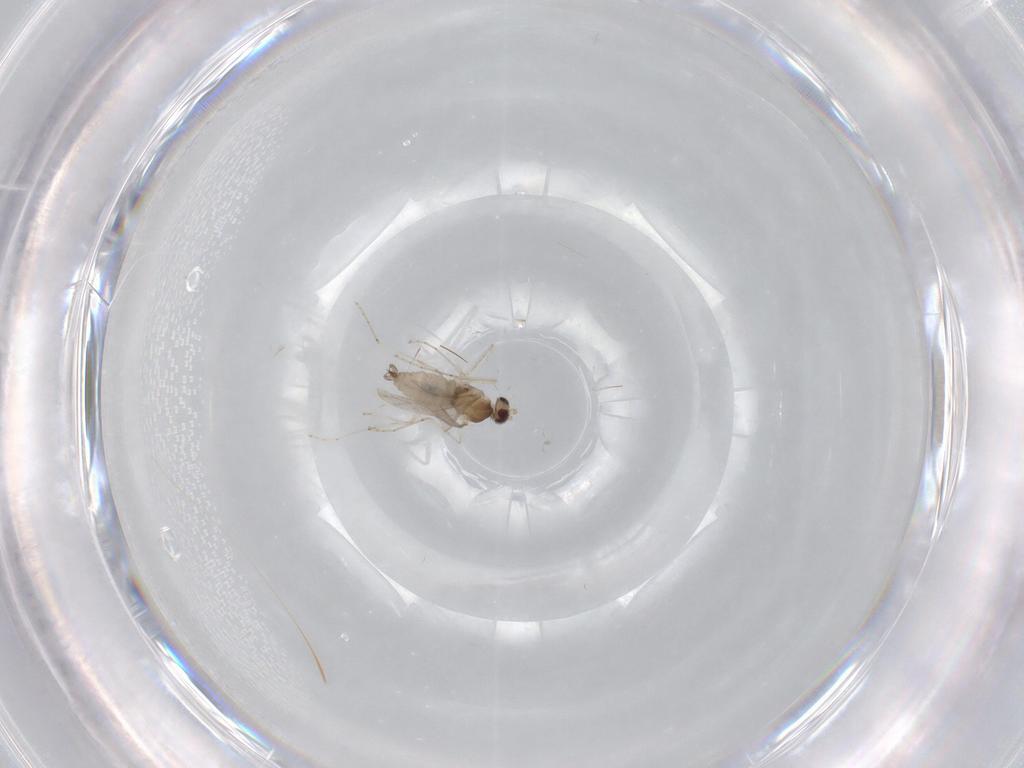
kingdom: Animalia
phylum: Arthropoda
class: Insecta
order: Diptera
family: Cecidomyiidae
